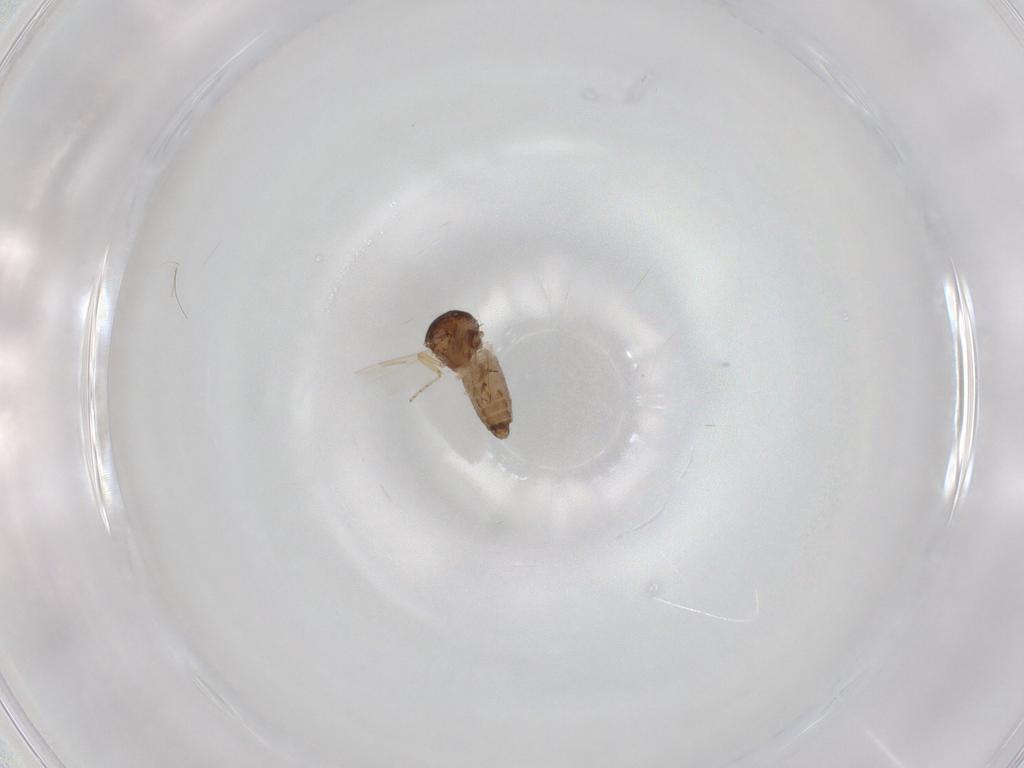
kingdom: Animalia
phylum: Arthropoda
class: Insecta
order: Diptera
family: Ceratopogonidae
